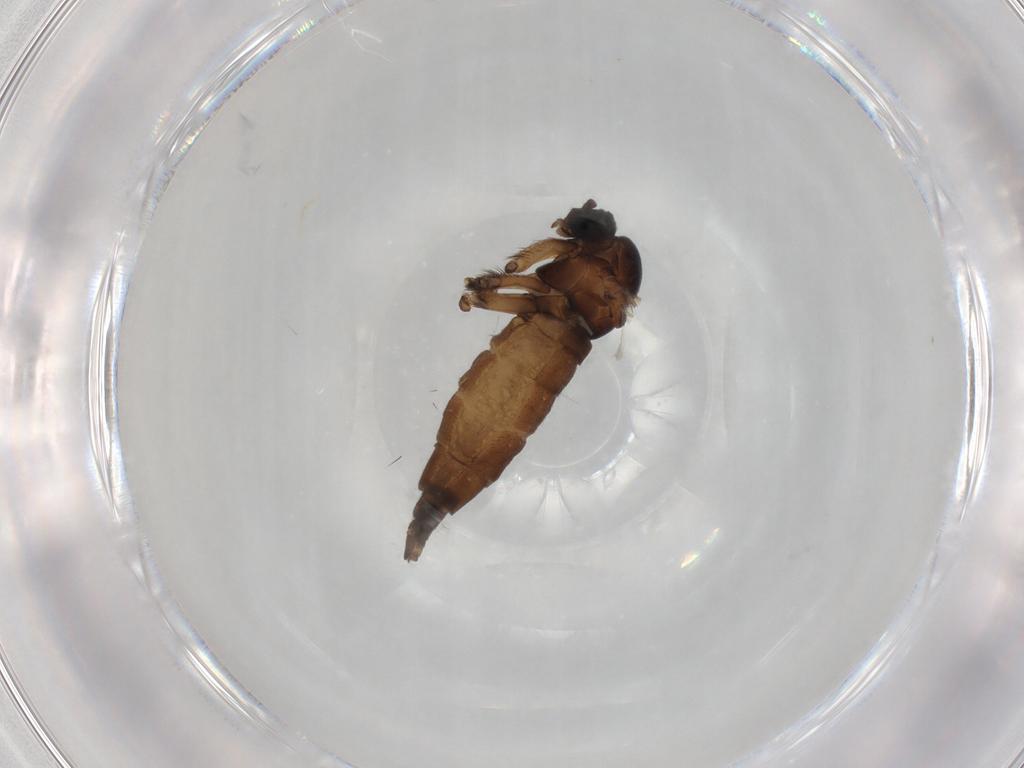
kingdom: Animalia
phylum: Arthropoda
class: Insecta
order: Diptera
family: Sciaridae
